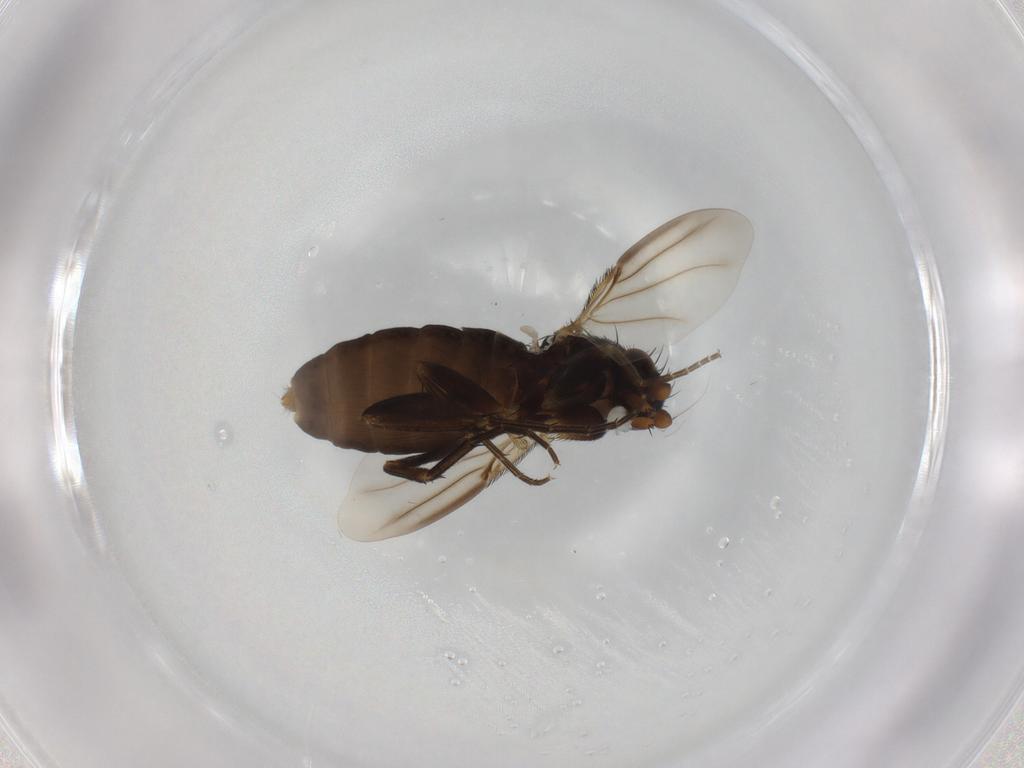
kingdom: Animalia
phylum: Arthropoda
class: Insecta
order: Diptera
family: Phoridae
